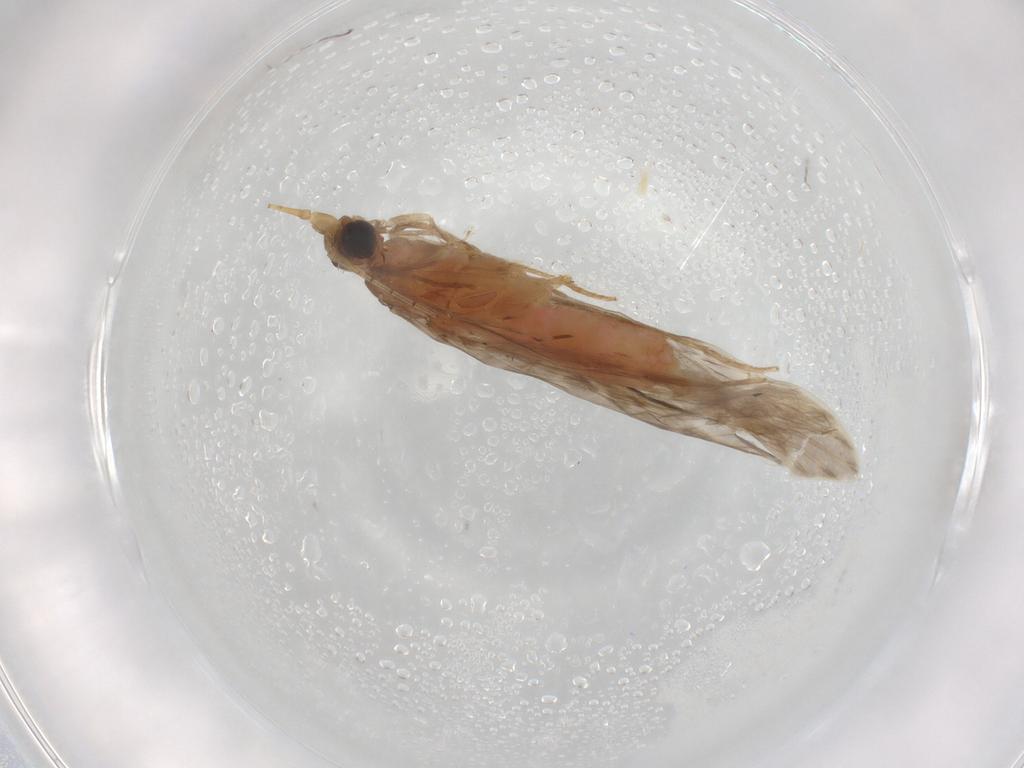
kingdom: Animalia
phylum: Arthropoda
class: Insecta
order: Trichoptera
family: Leptoceridae
